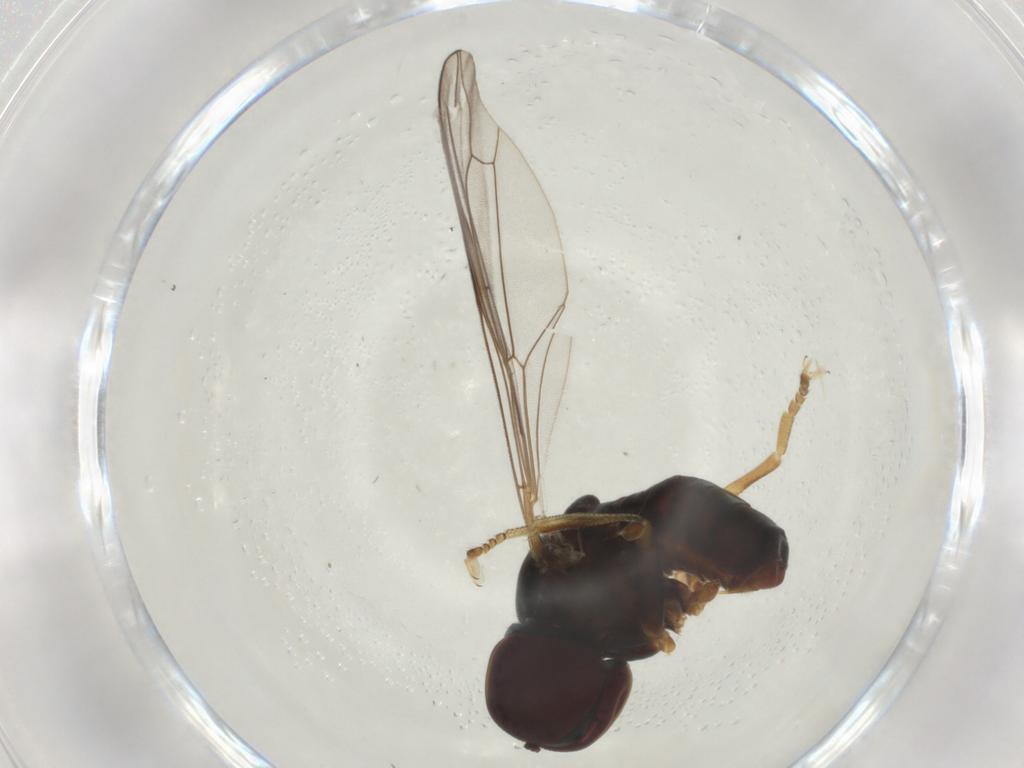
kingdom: Animalia
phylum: Arthropoda
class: Insecta
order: Diptera
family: Pipunculidae
